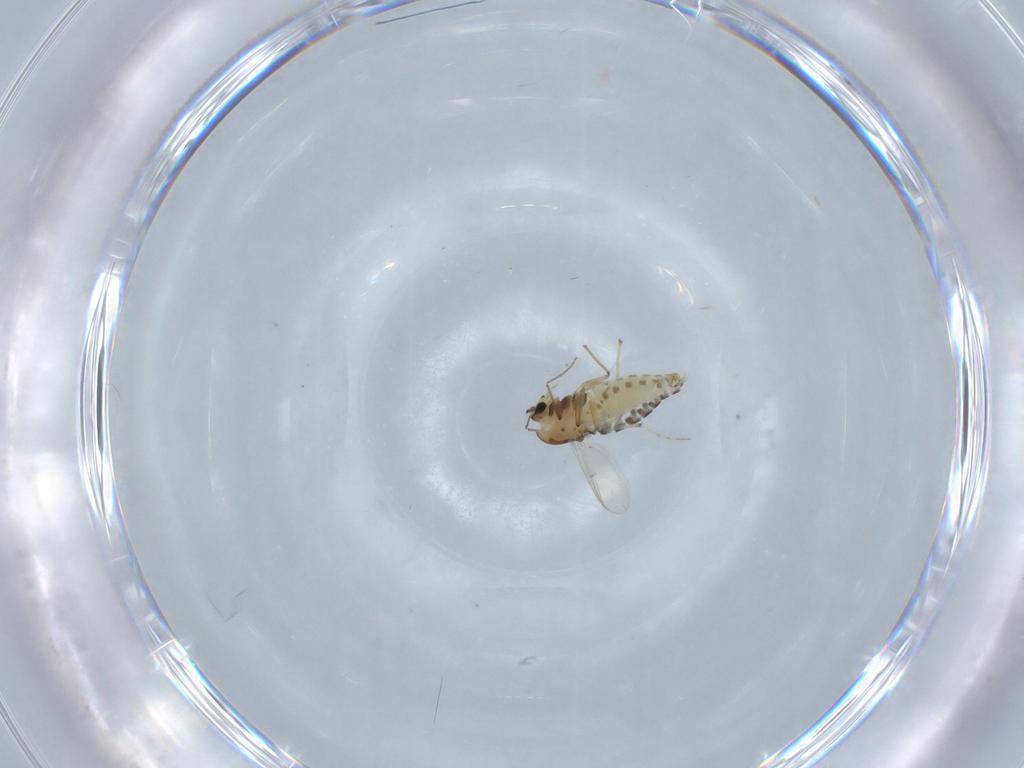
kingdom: Animalia
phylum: Arthropoda
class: Insecta
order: Diptera
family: Chironomidae
